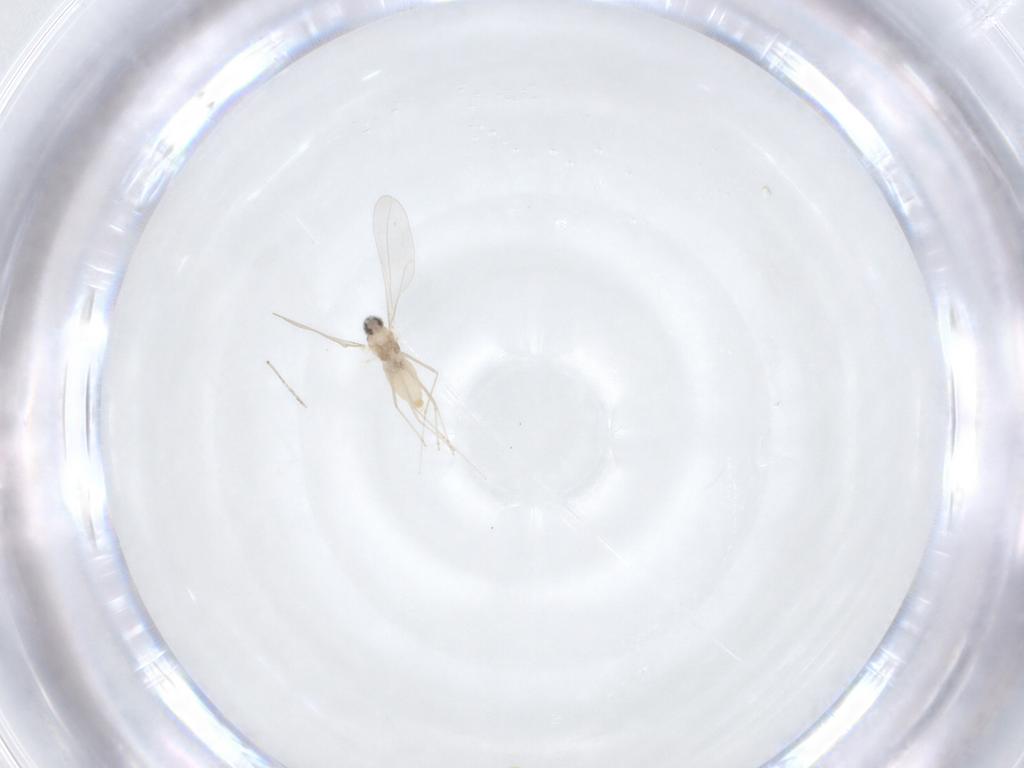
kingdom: Animalia
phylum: Arthropoda
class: Insecta
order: Diptera
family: Cecidomyiidae
